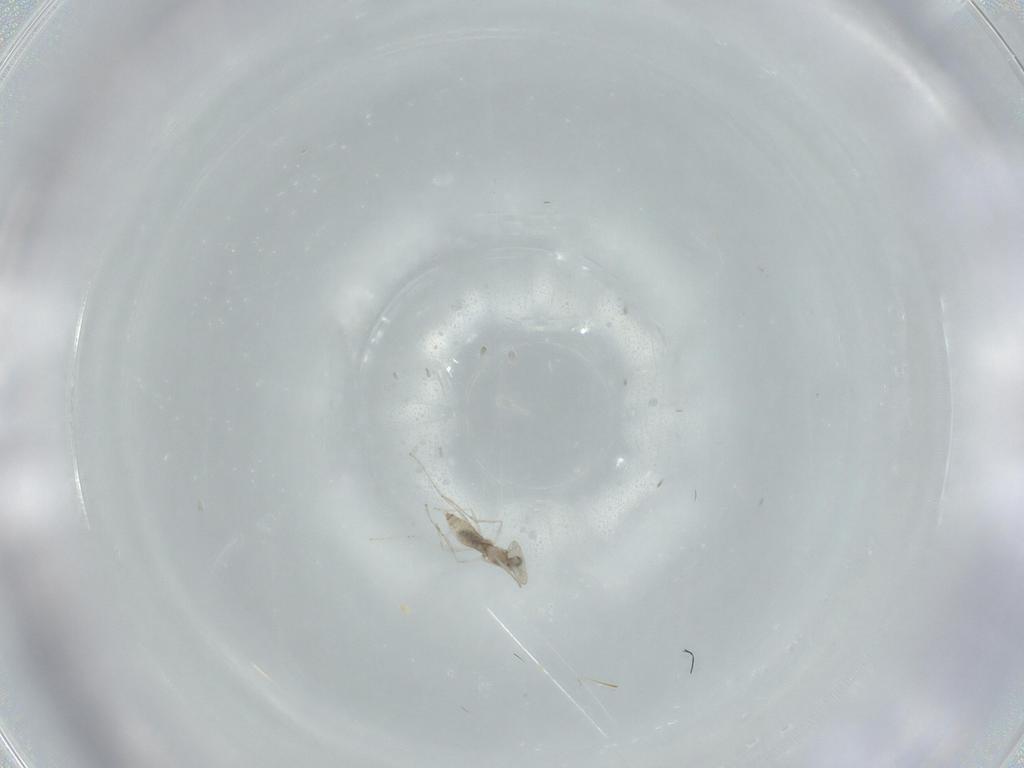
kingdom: Animalia
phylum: Arthropoda
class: Insecta
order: Diptera
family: Cecidomyiidae
